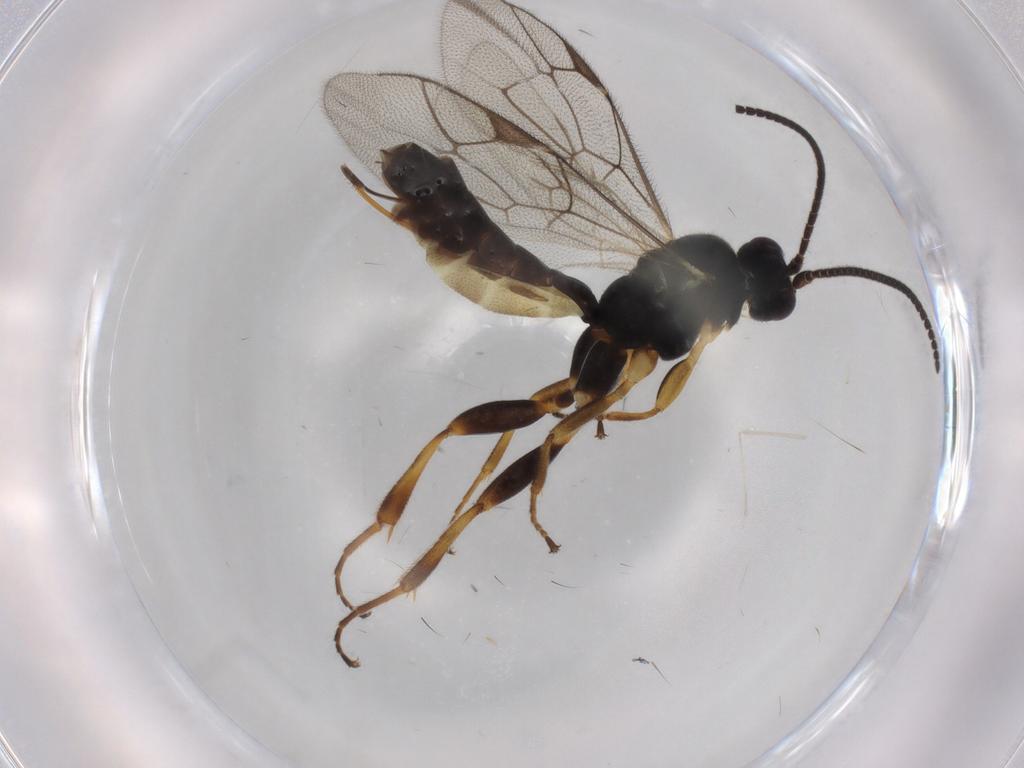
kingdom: Animalia
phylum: Arthropoda
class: Insecta
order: Hymenoptera
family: Ichneumonidae
